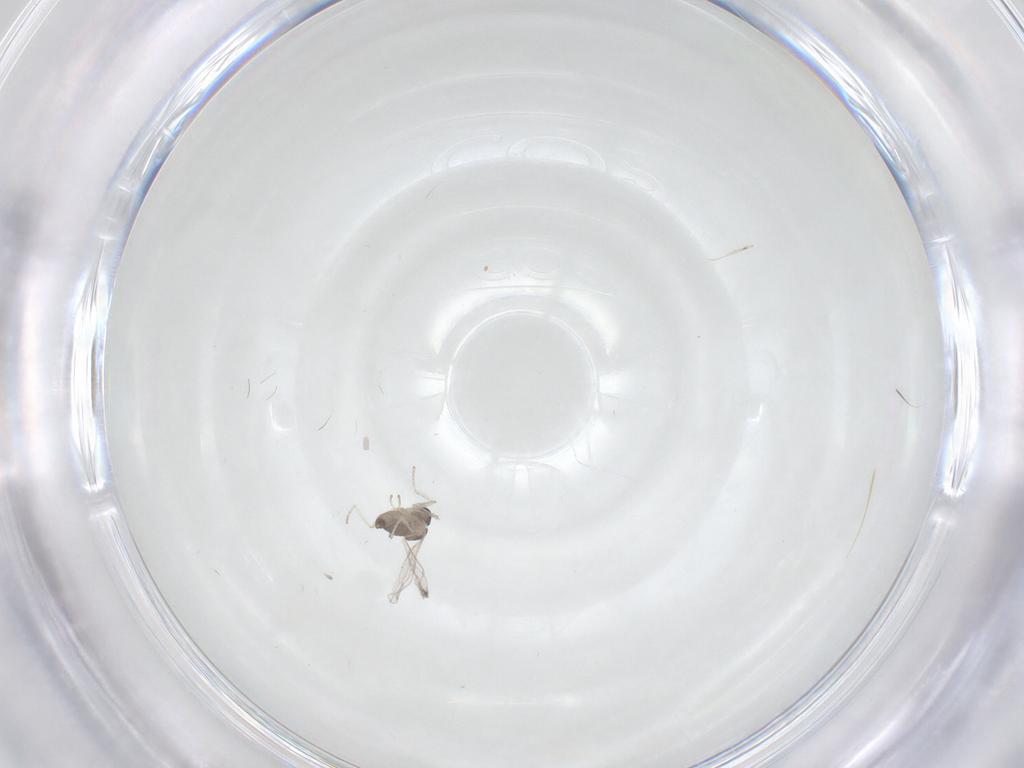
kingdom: Animalia
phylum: Arthropoda
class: Insecta
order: Diptera
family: Cecidomyiidae
